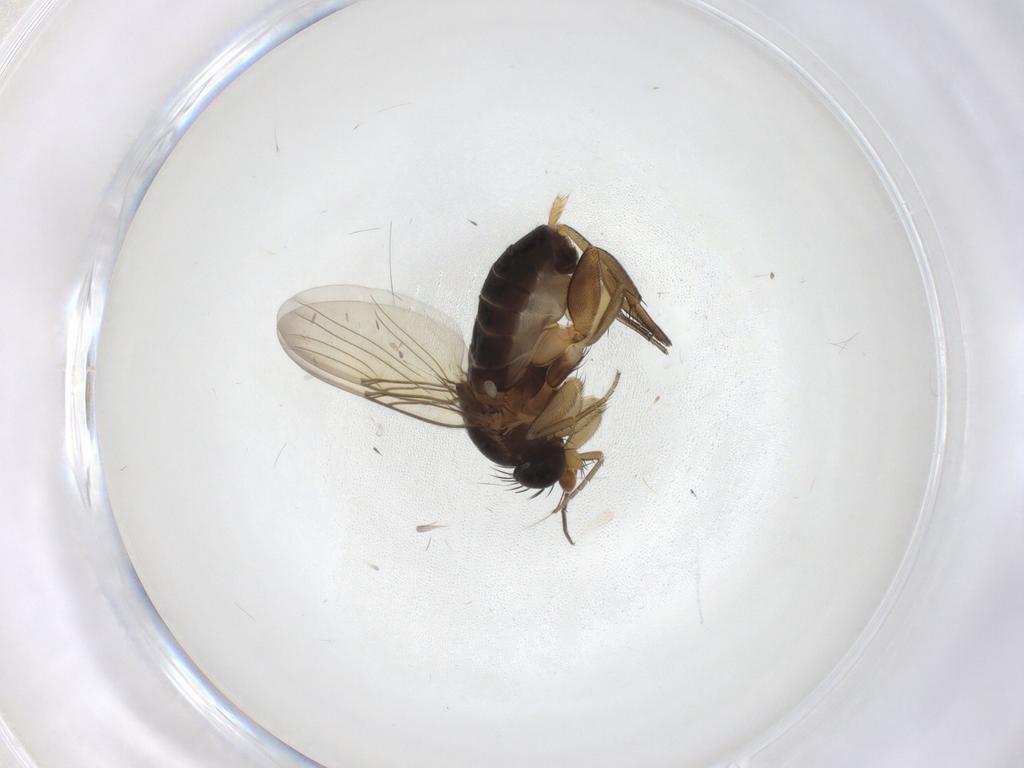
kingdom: Animalia
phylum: Arthropoda
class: Insecta
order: Diptera
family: Phoridae
